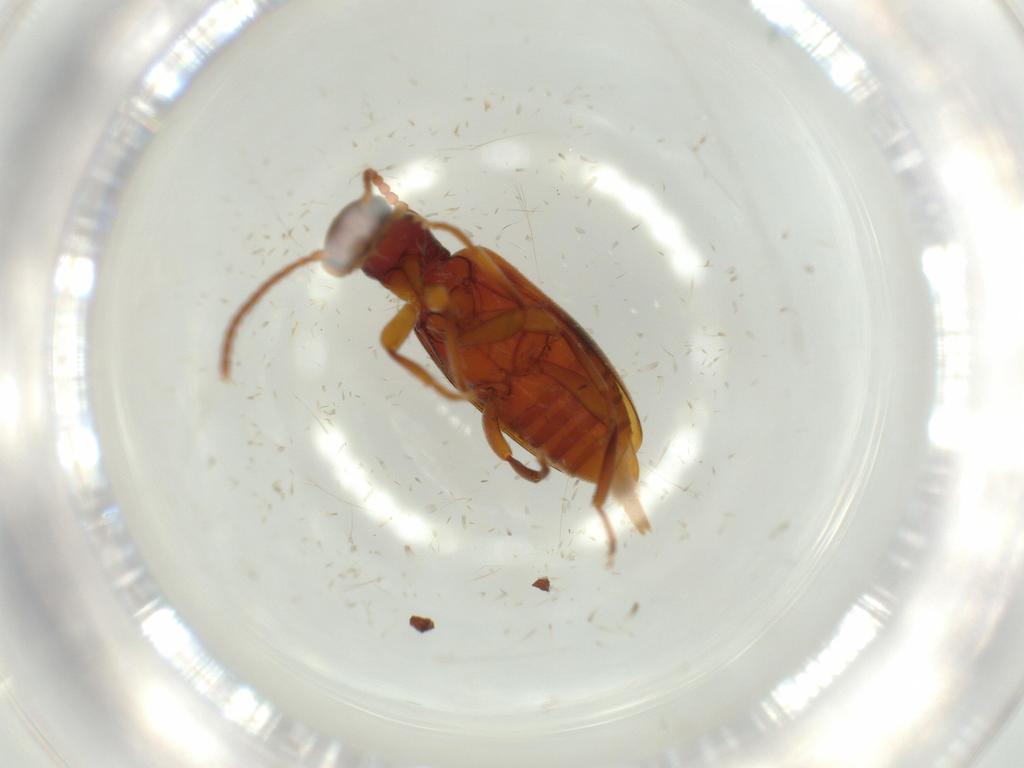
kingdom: Animalia
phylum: Arthropoda
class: Insecta
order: Coleoptera
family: Anthicidae
